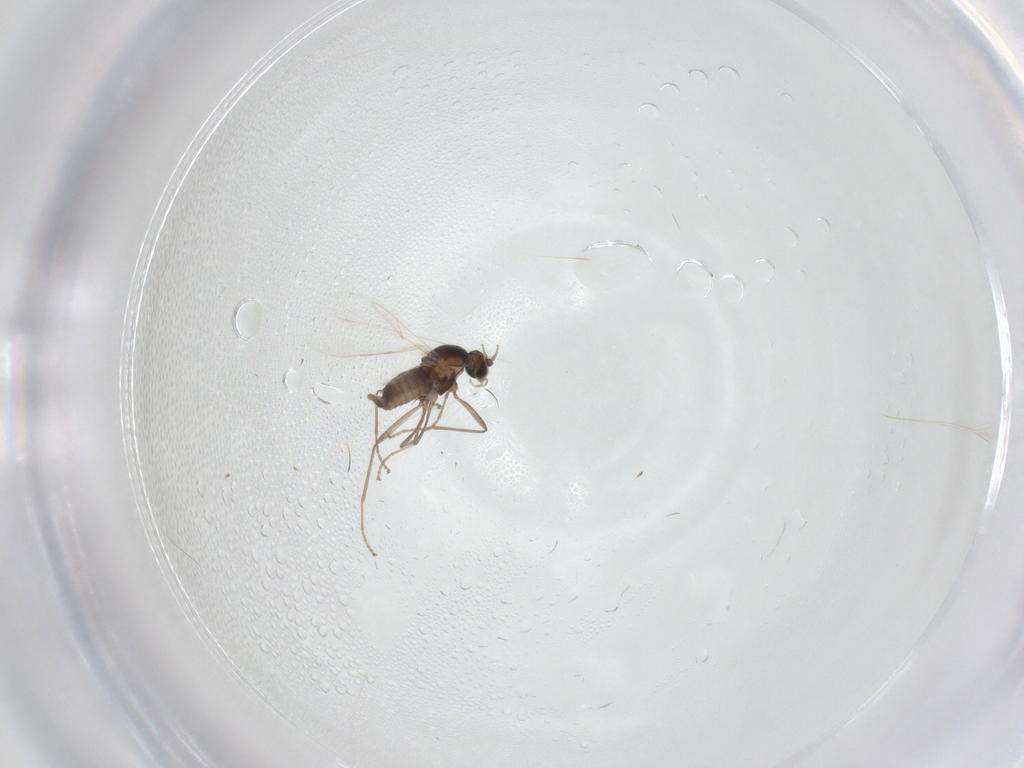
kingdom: Animalia
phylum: Arthropoda
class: Insecta
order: Diptera
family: Cecidomyiidae
